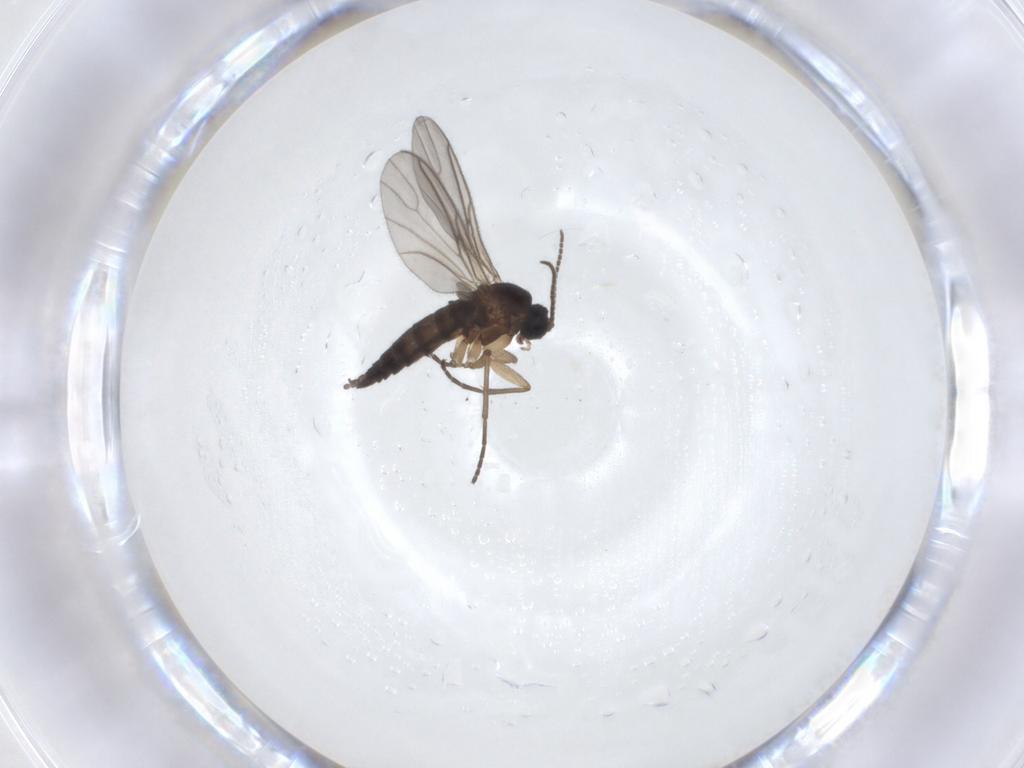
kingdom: Animalia
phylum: Arthropoda
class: Insecta
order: Diptera
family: Sciaridae
